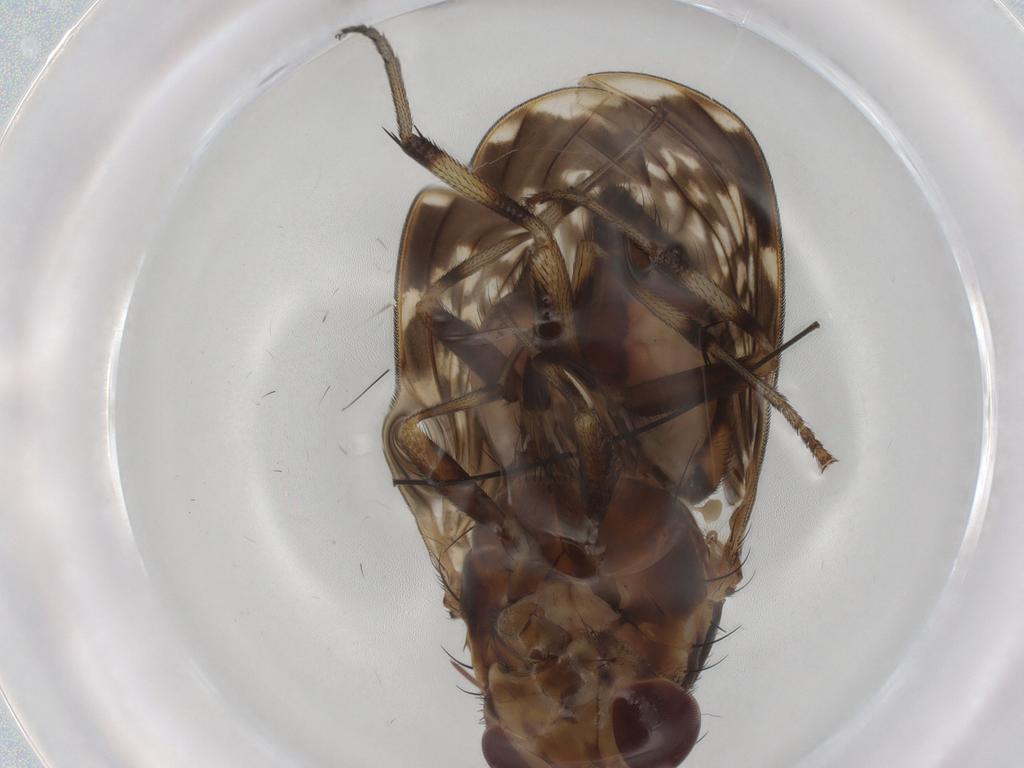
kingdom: Animalia
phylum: Arthropoda
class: Insecta
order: Diptera
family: Ceratopogonidae
